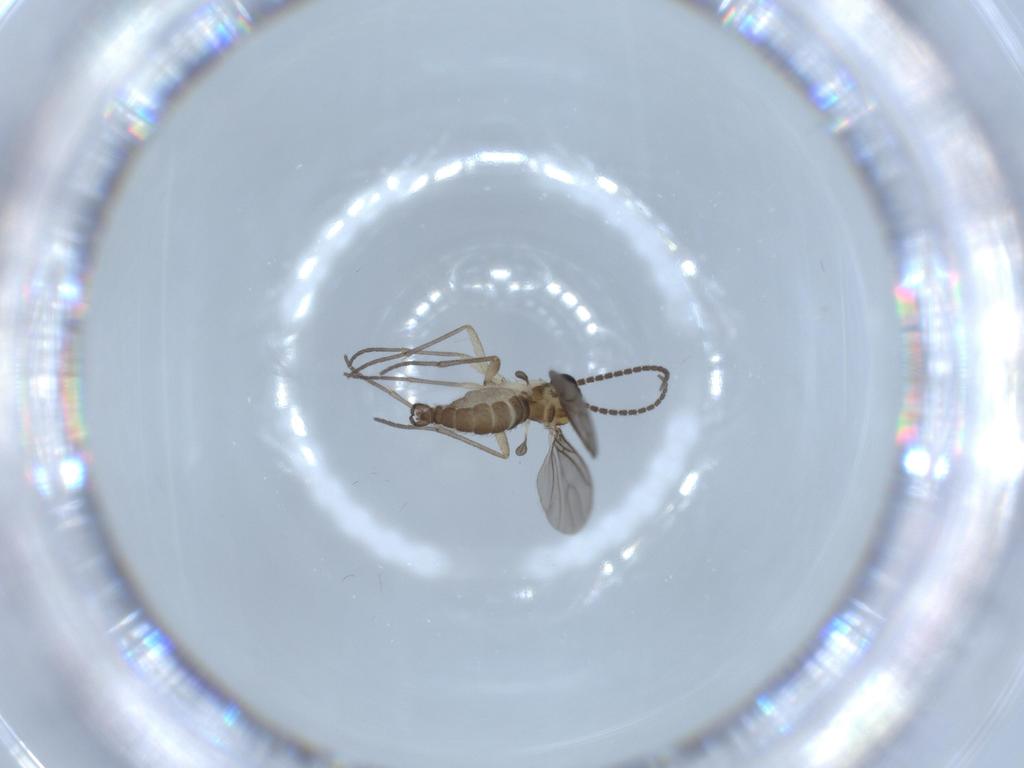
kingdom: Animalia
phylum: Arthropoda
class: Insecta
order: Diptera
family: Sciaridae
